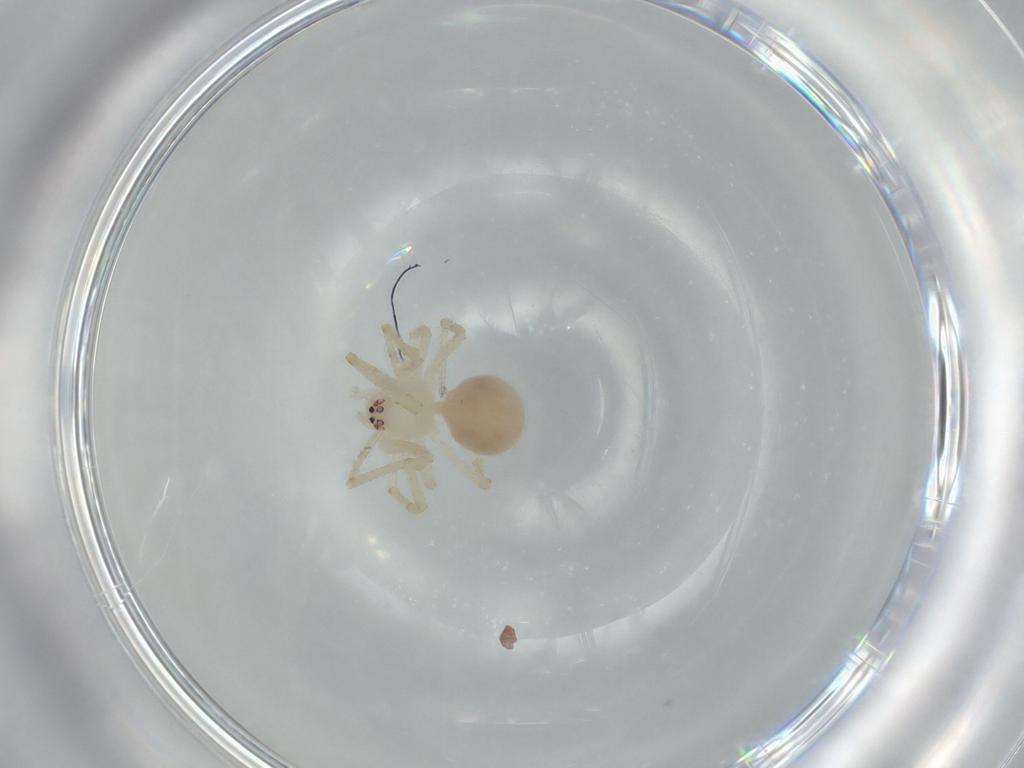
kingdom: Animalia
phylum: Arthropoda
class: Arachnida
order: Araneae
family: Nesticidae
